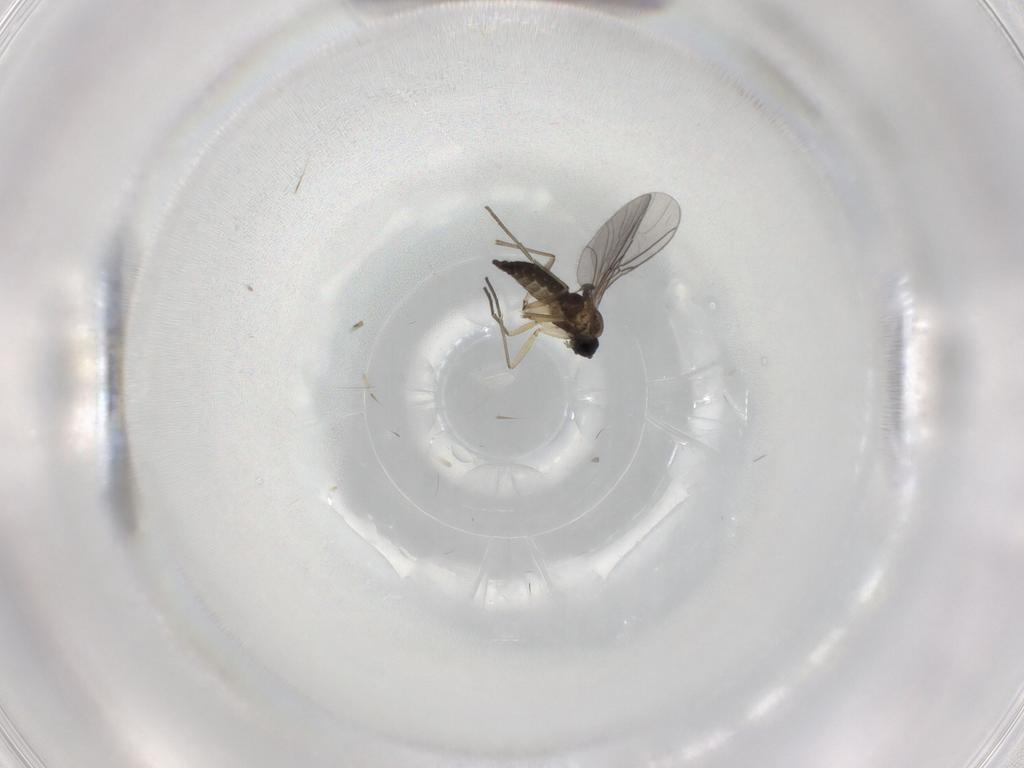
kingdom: Animalia
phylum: Arthropoda
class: Insecta
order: Diptera
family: Sciaridae
